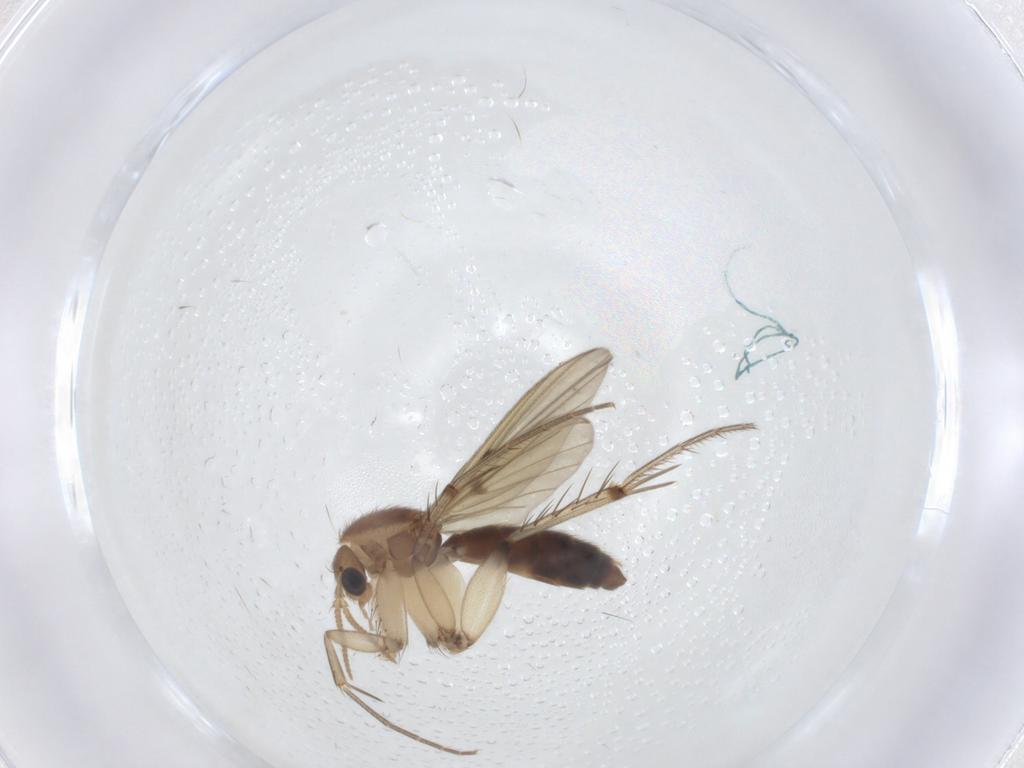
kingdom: Animalia
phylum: Arthropoda
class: Insecta
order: Diptera
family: Mycetophilidae
